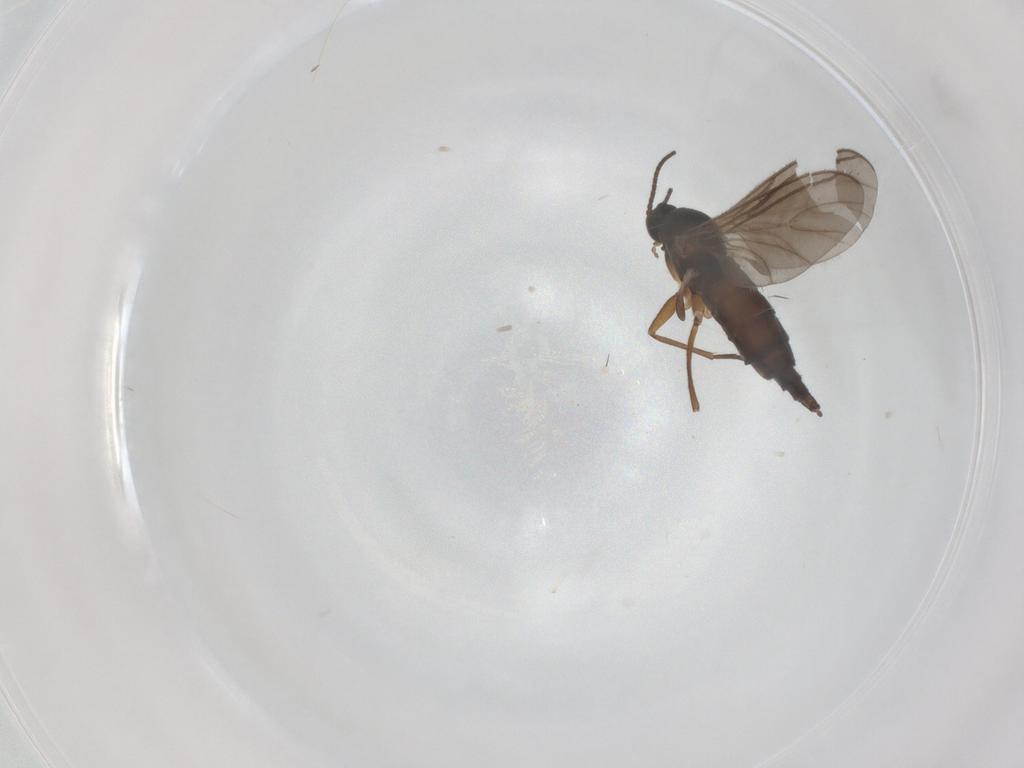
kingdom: Animalia
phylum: Arthropoda
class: Insecta
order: Diptera
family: Sciaridae
